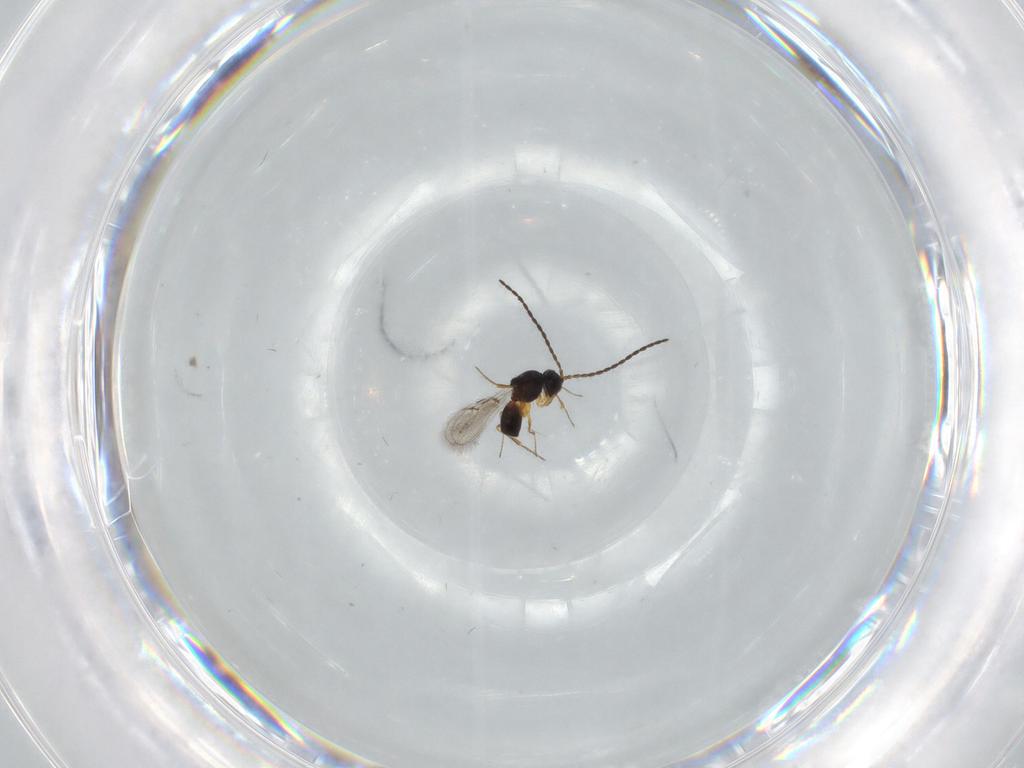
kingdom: Animalia
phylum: Arthropoda
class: Insecta
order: Hymenoptera
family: Figitidae
